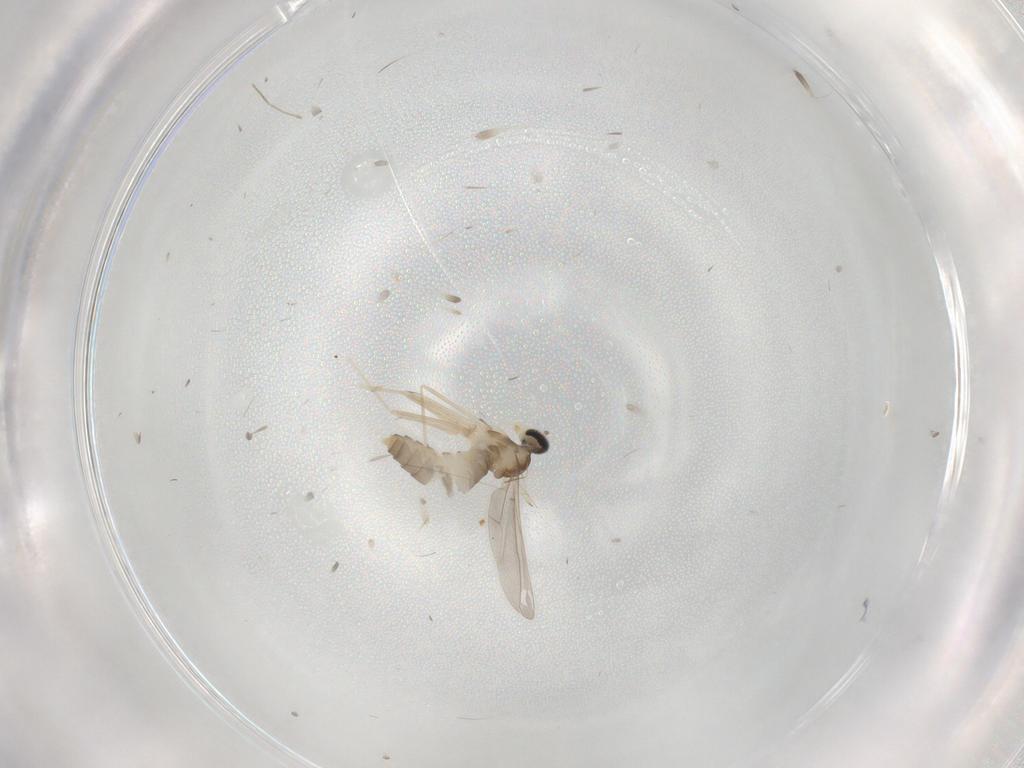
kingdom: Animalia
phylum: Arthropoda
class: Insecta
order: Diptera
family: Cecidomyiidae
